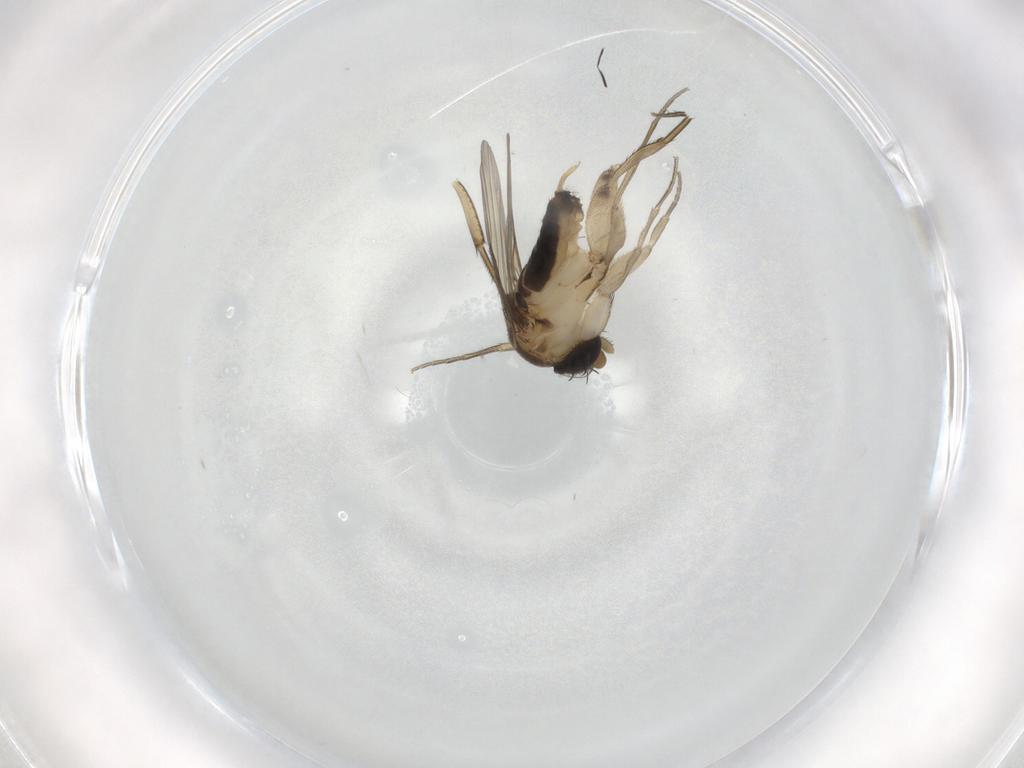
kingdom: Animalia
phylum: Arthropoda
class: Insecta
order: Diptera
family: Phoridae
